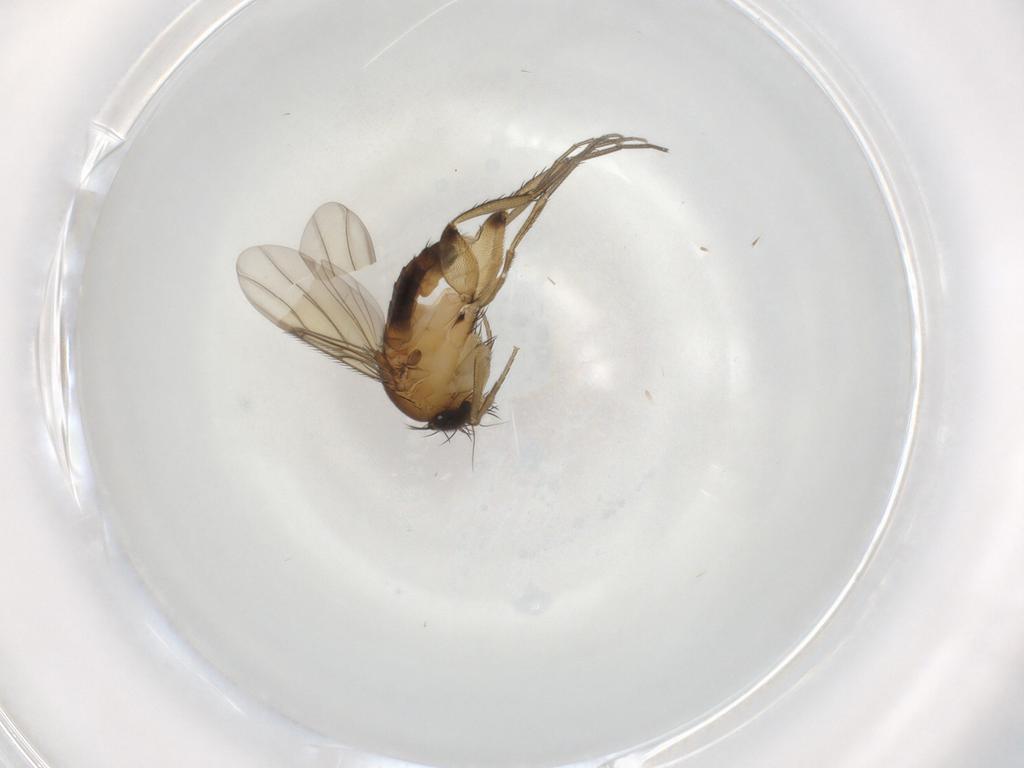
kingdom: Animalia
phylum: Arthropoda
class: Insecta
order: Diptera
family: Phoridae
